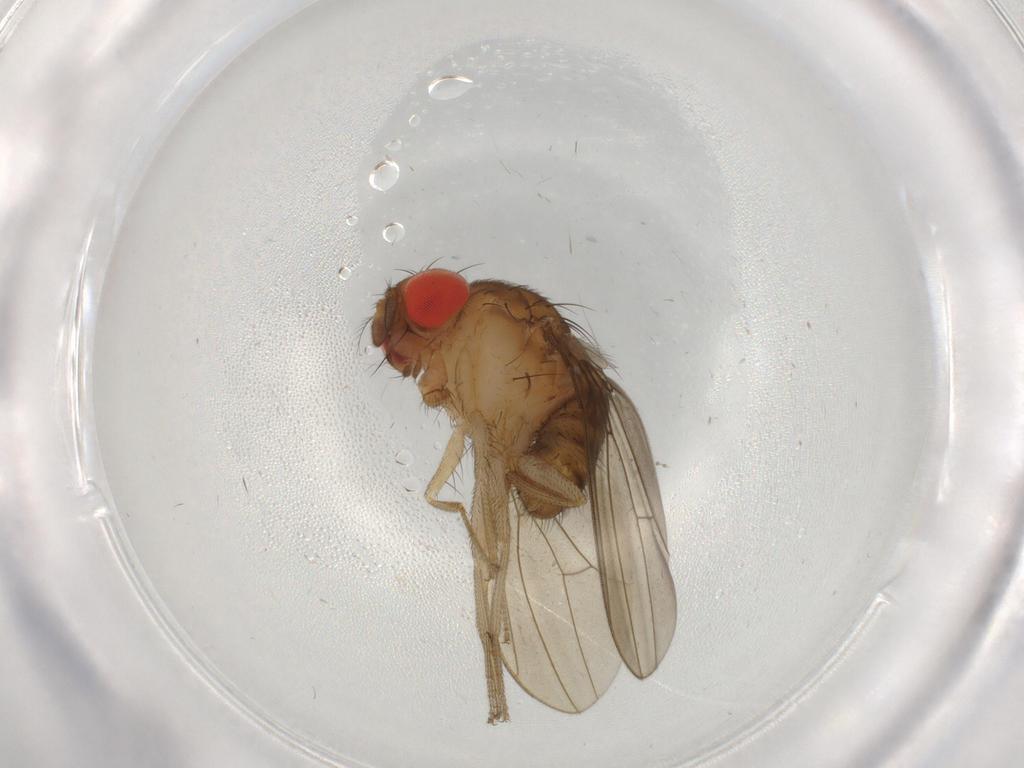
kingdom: Animalia
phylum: Arthropoda
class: Insecta
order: Diptera
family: Drosophilidae
